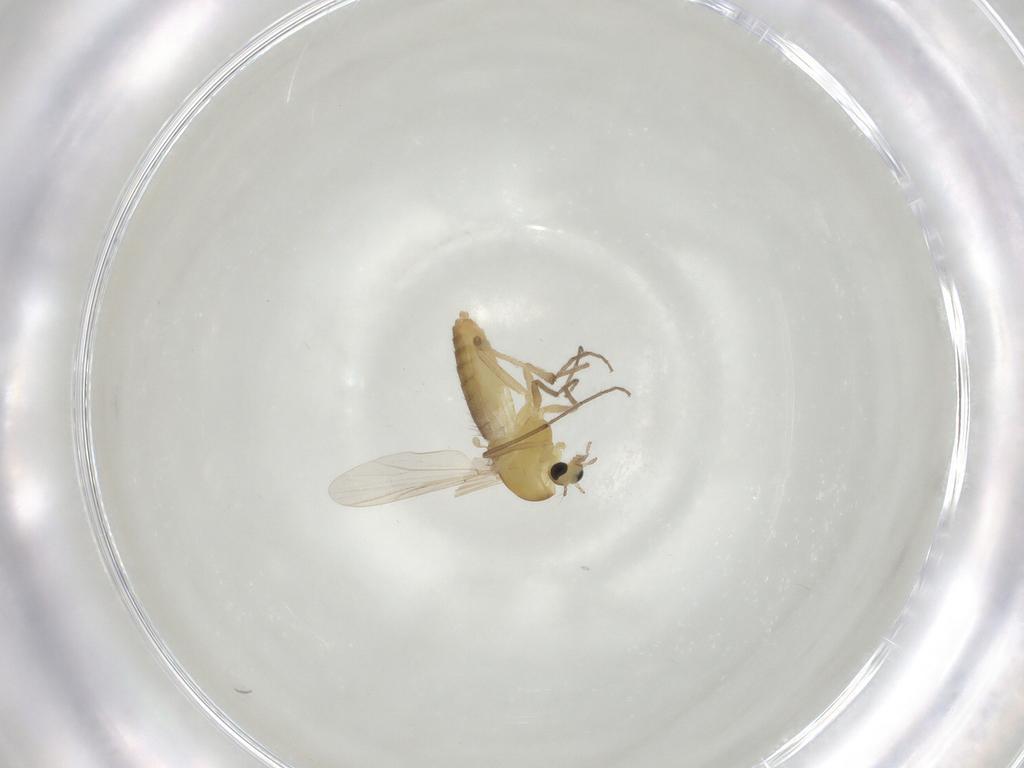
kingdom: Animalia
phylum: Arthropoda
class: Insecta
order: Diptera
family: Chironomidae
